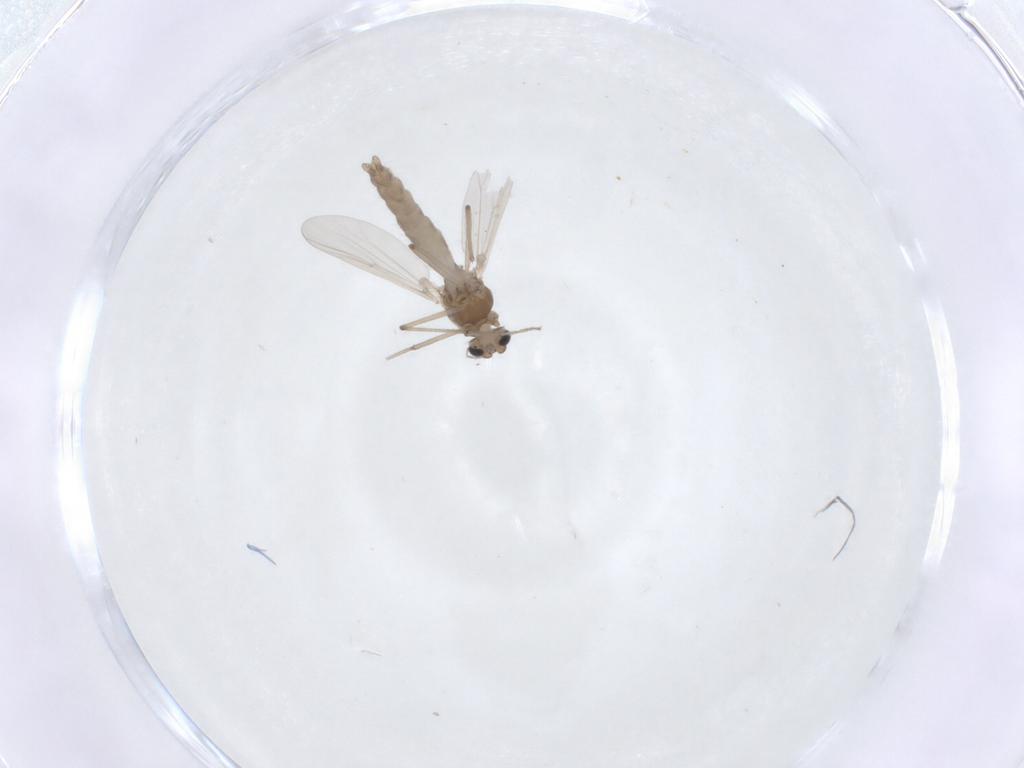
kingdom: Animalia
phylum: Arthropoda
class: Insecta
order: Diptera
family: Chironomidae
